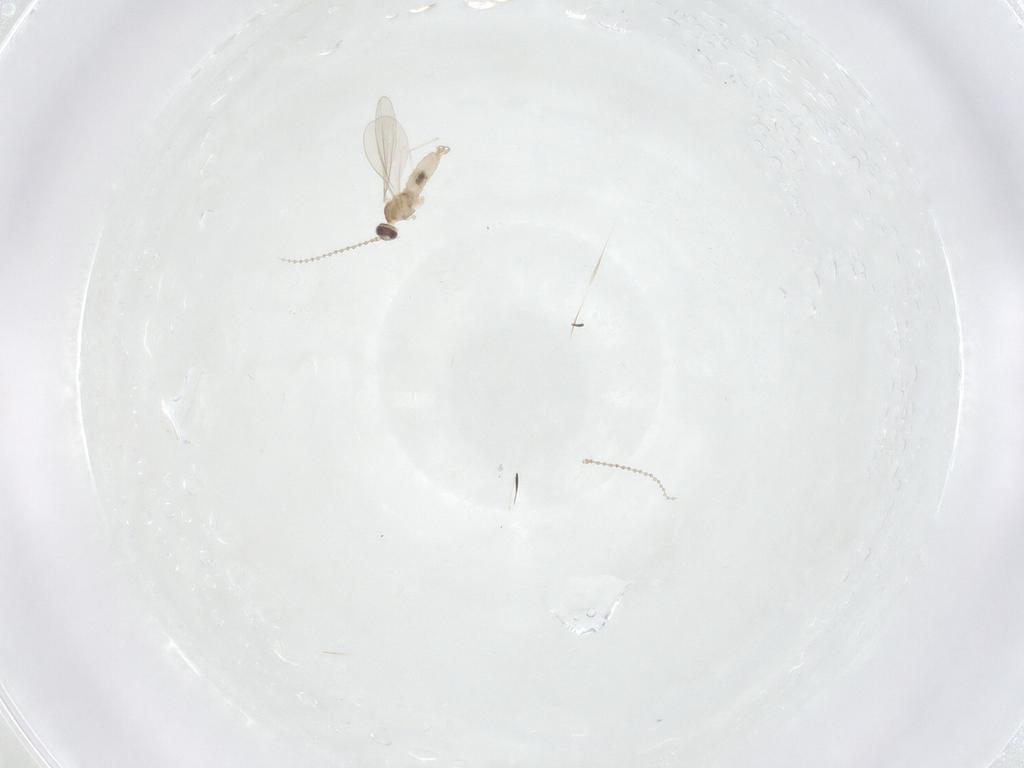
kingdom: Animalia
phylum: Arthropoda
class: Insecta
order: Diptera
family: Cecidomyiidae
